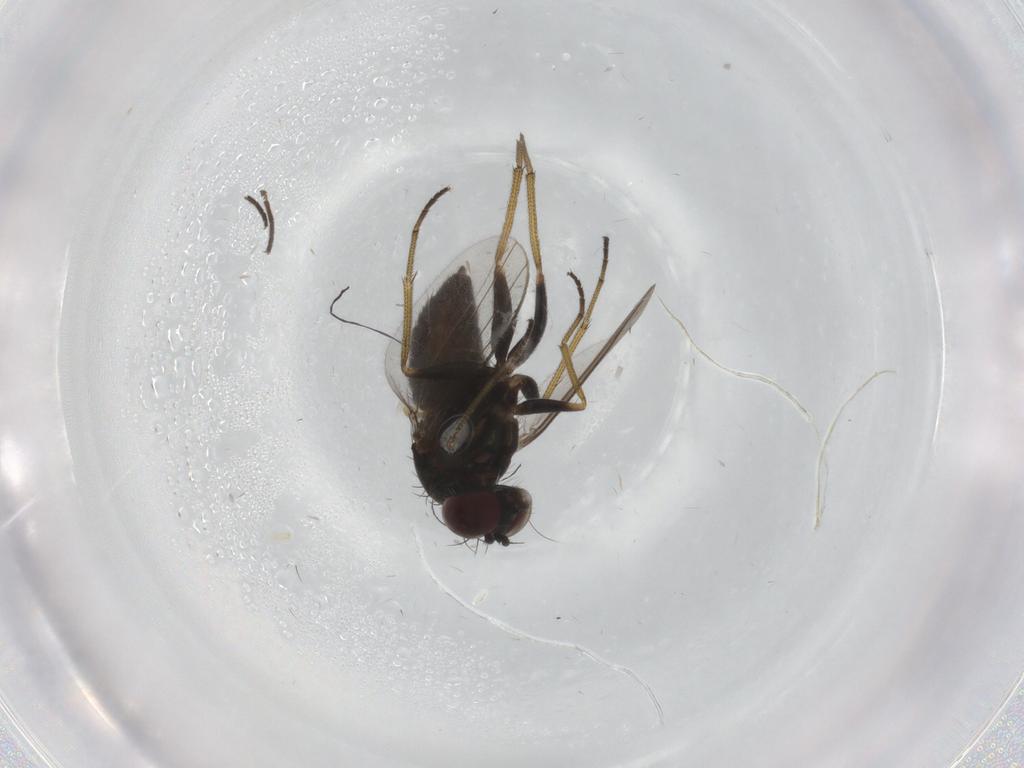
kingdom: Animalia
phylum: Arthropoda
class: Insecta
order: Diptera
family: Dolichopodidae
